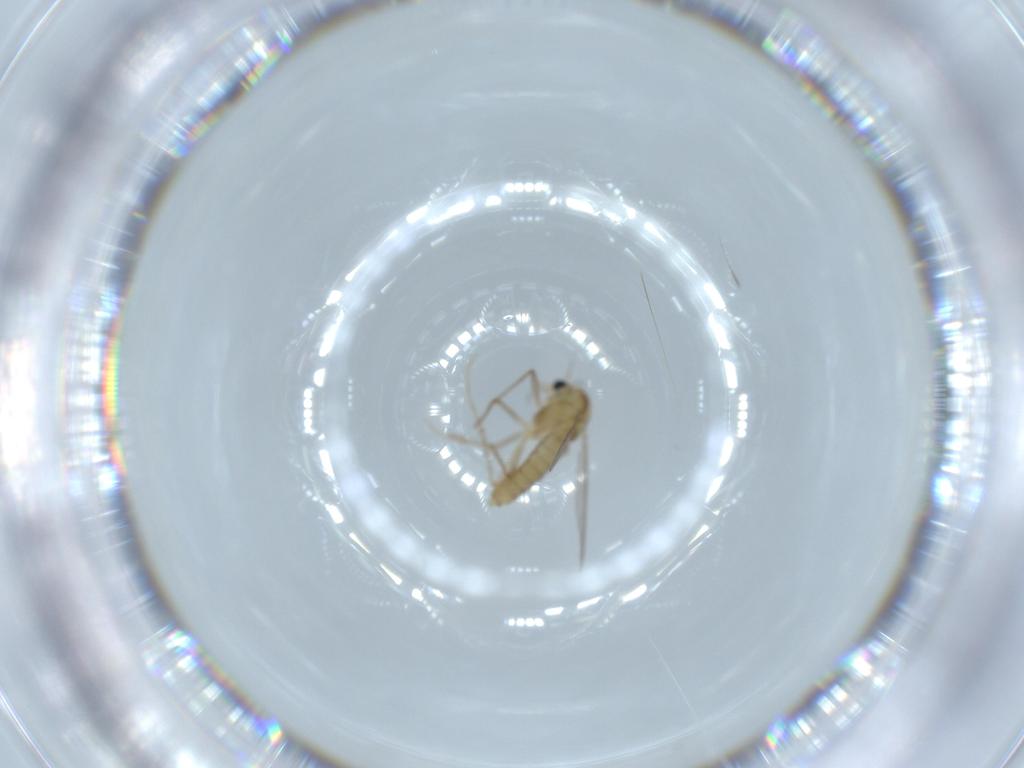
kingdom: Animalia
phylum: Arthropoda
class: Insecta
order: Diptera
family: Chironomidae
